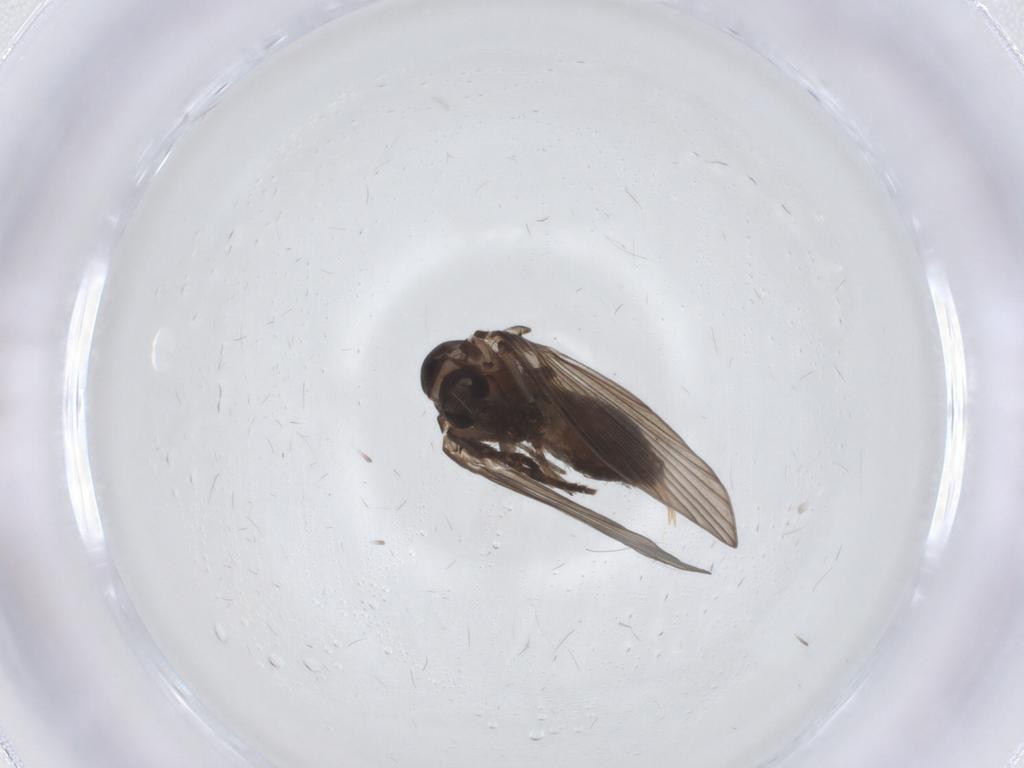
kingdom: Animalia
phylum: Arthropoda
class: Insecta
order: Diptera
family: Psychodidae
